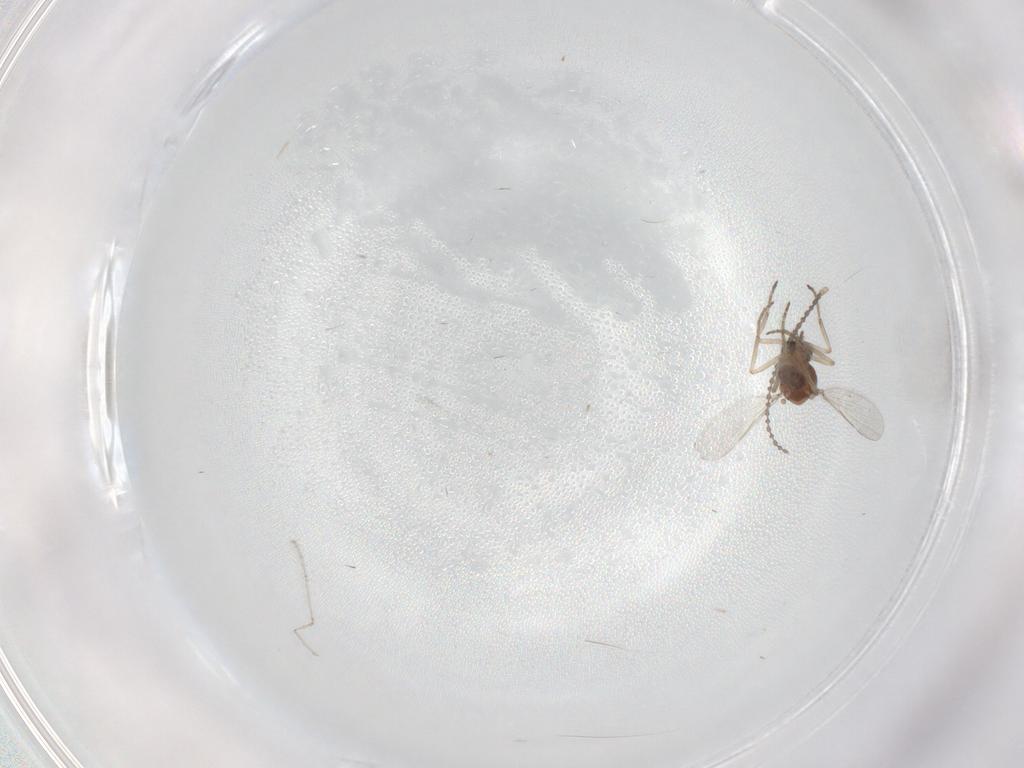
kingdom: Animalia
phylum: Arthropoda
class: Insecta
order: Diptera
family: Ceratopogonidae
